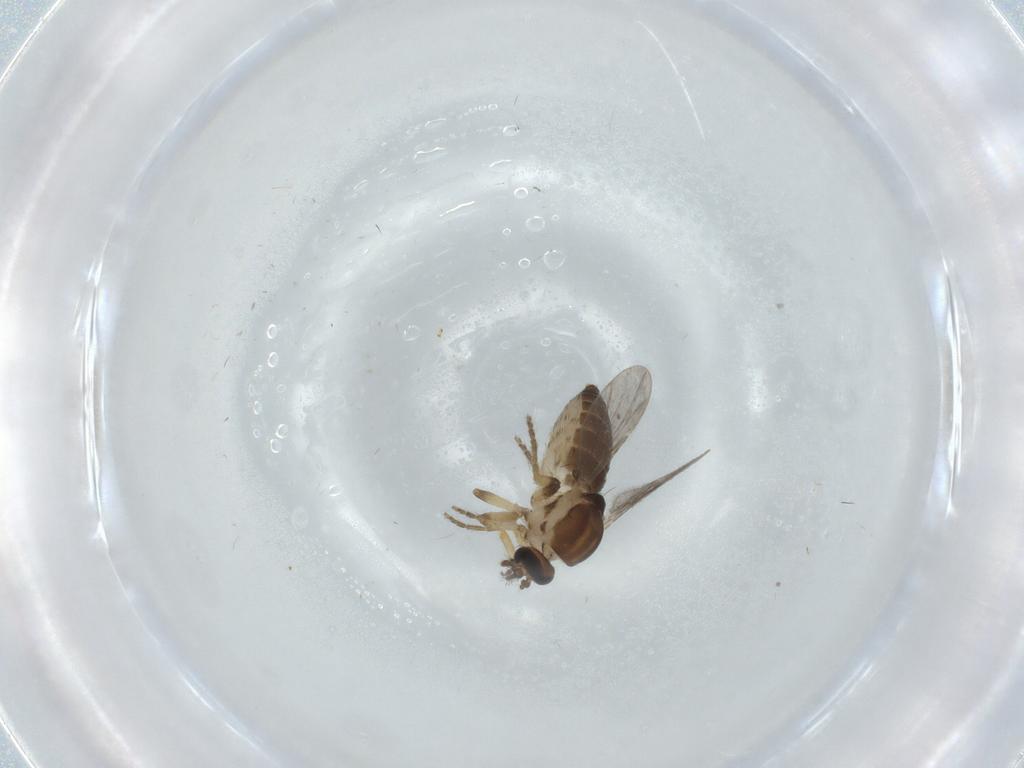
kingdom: Animalia
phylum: Arthropoda
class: Insecta
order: Diptera
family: Ceratopogonidae
